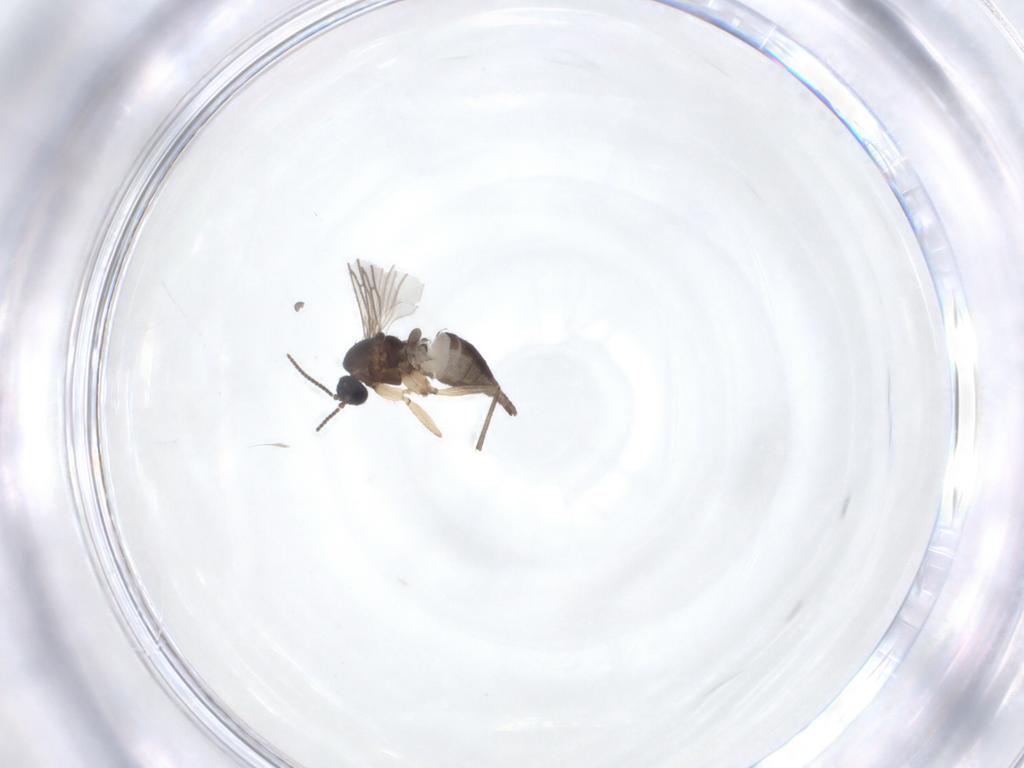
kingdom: Animalia
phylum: Arthropoda
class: Insecta
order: Diptera
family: Sciaridae
